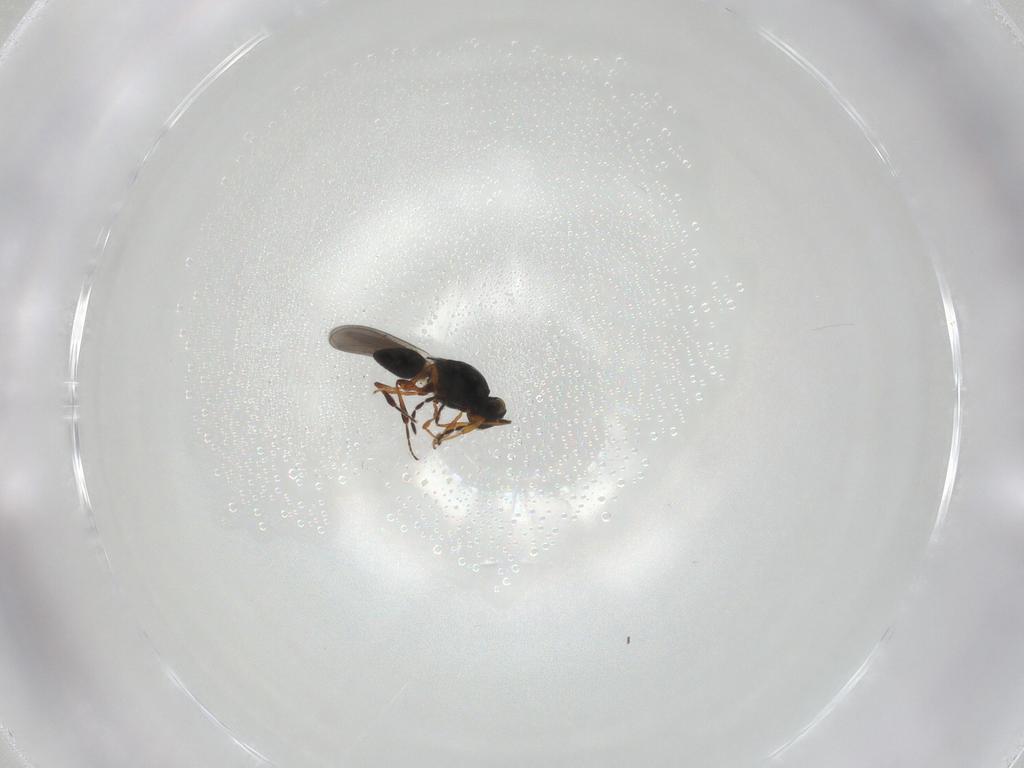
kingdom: Animalia
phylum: Arthropoda
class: Insecta
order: Hymenoptera
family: Platygastridae
